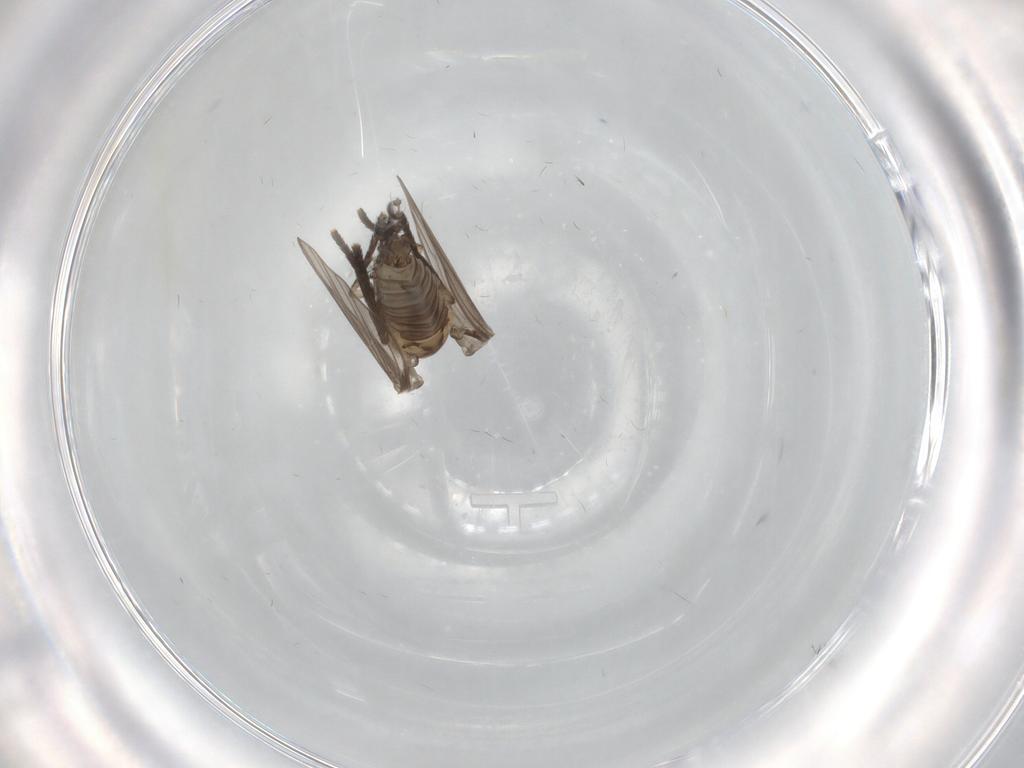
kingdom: Animalia
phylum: Arthropoda
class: Insecta
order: Diptera
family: Psychodidae
